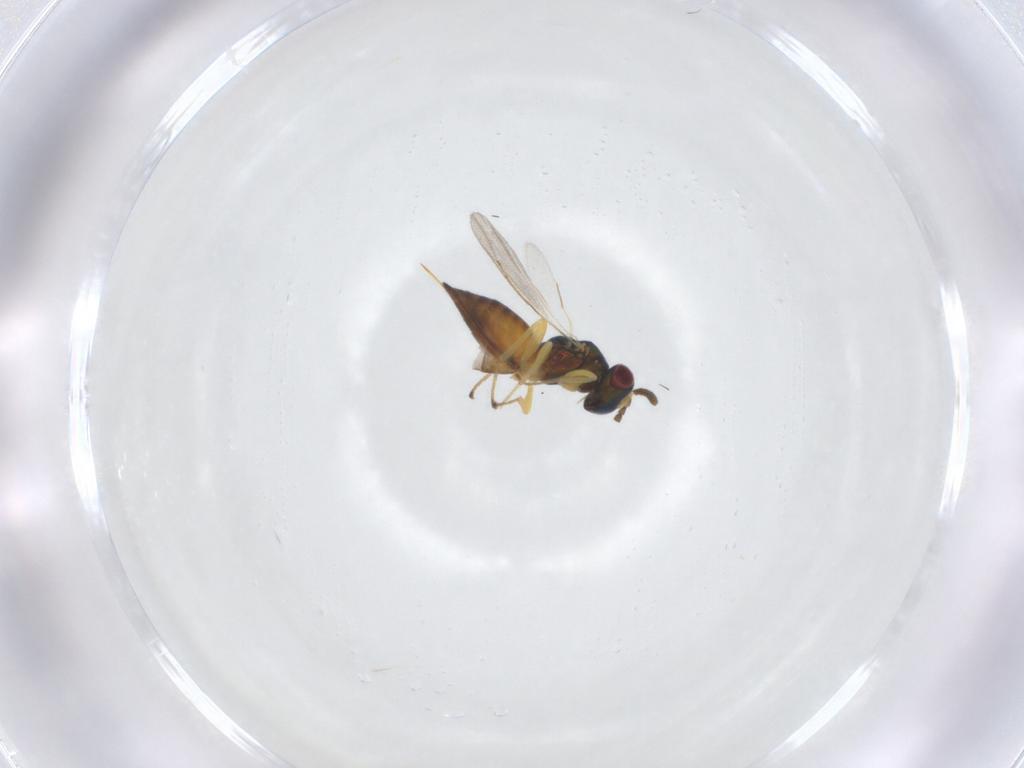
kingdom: Animalia
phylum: Arthropoda
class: Insecta
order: Hymenoptera
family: Pteromalidae
